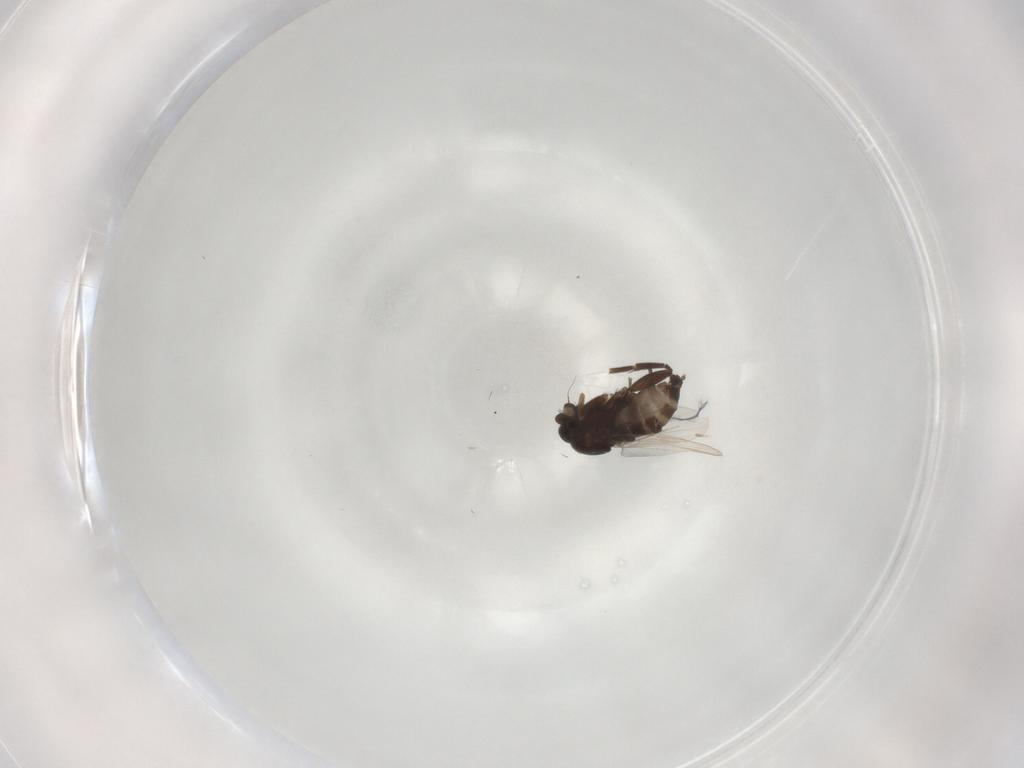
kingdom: Animalia
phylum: Arthropoda
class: Insecta
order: Diptera
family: Phoridae
